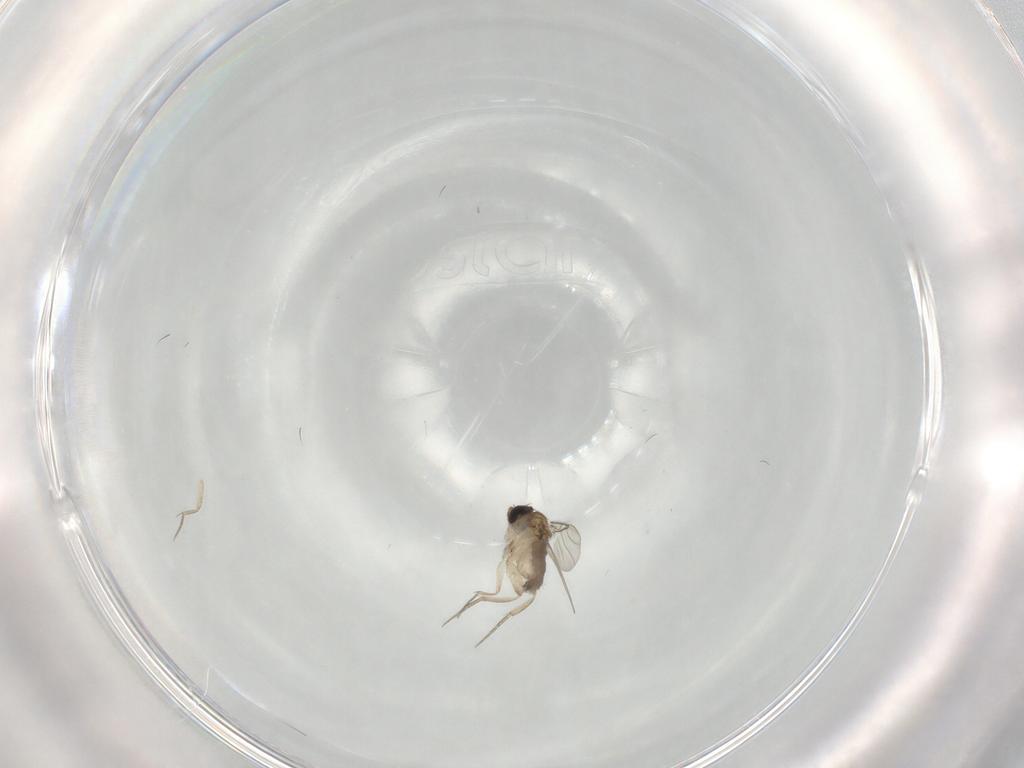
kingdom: Animalia
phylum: Arthropoda
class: Insecta
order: Diptera
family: Phoridae
